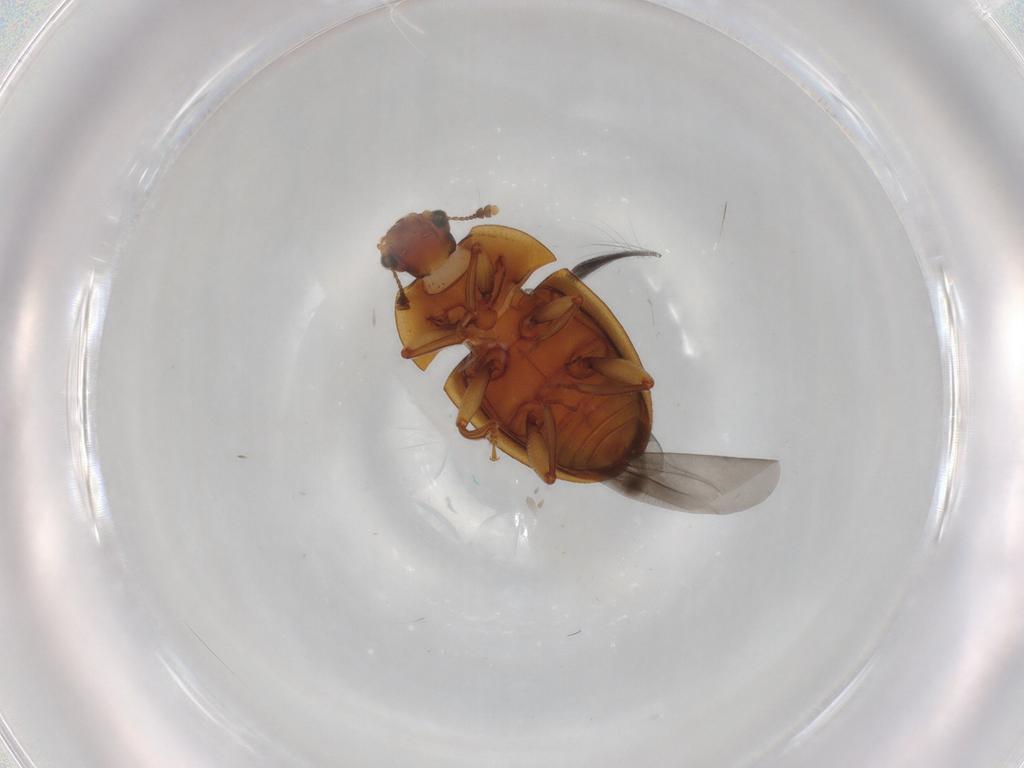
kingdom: Animalia
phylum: Arthropoda
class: Insecta
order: Coleoptera
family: Nitidulidae
